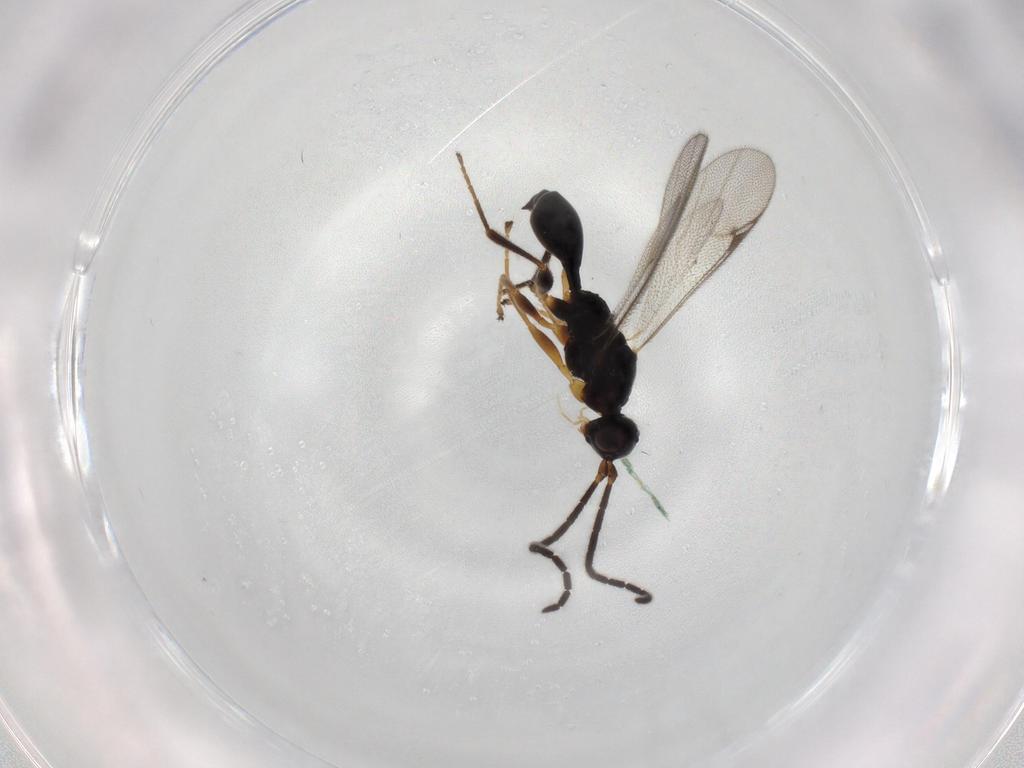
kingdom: Animalia
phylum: Arthropoda
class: Insecta
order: Hymenoptera
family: Proctotrupidae
